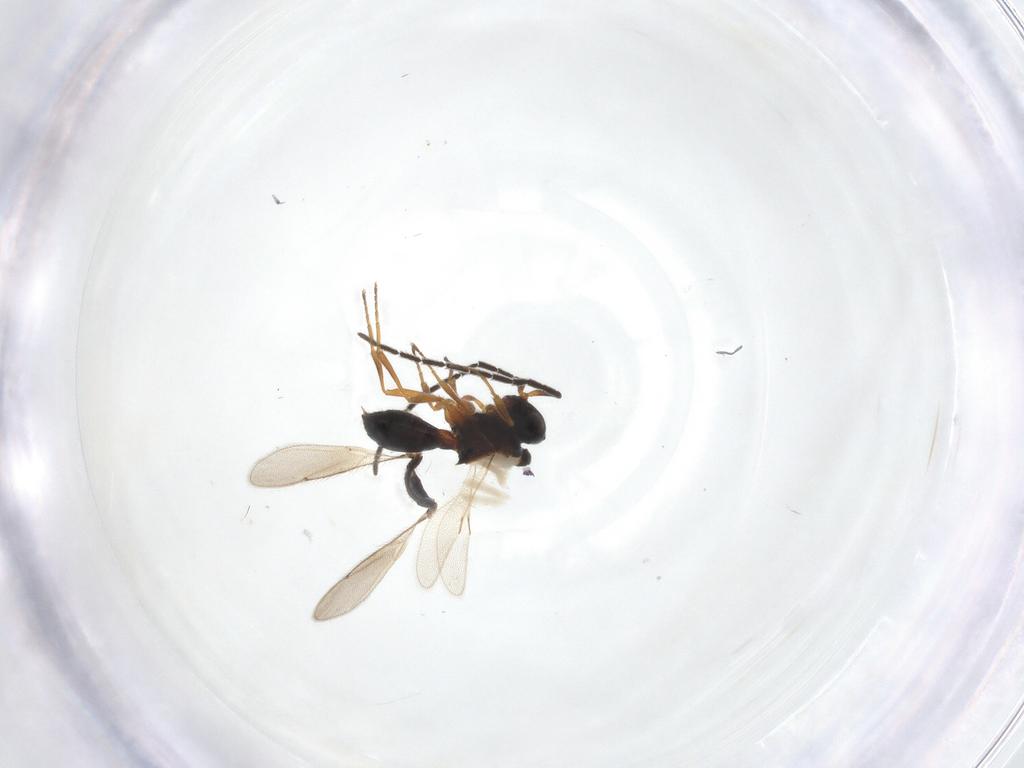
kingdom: Animalia
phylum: Arthropoda
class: Insecta
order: Hymenoptera
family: Scelionidae
